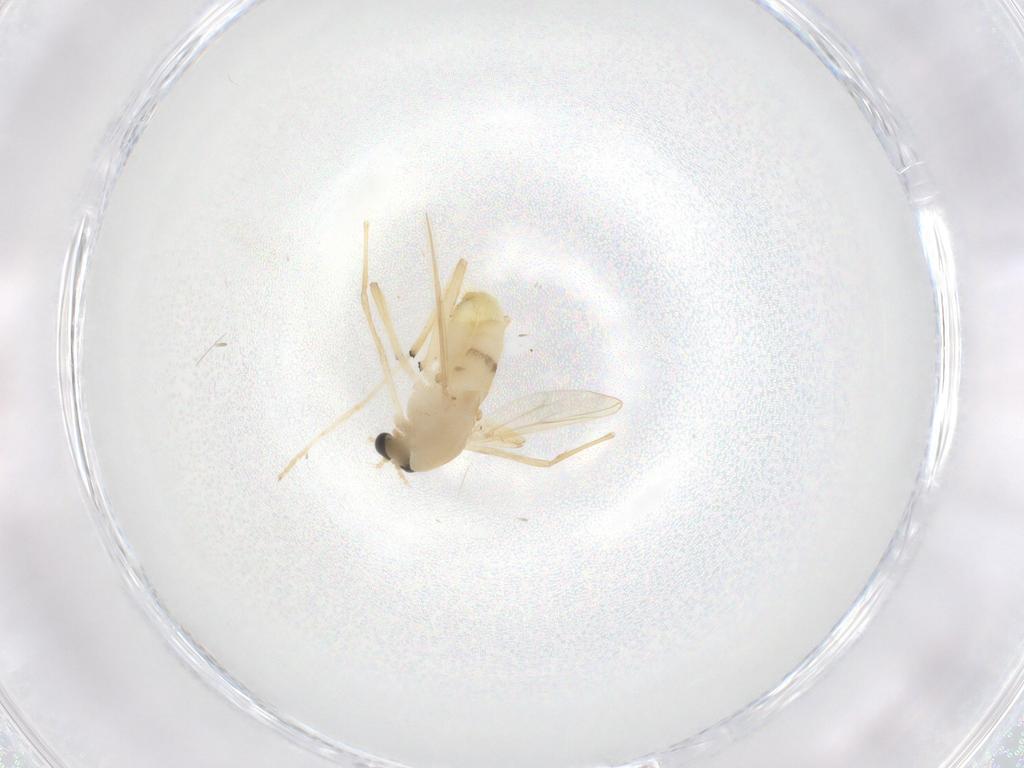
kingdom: Animalia
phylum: Arthropoda
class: Insecta
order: Diptera
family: Chironomidae
